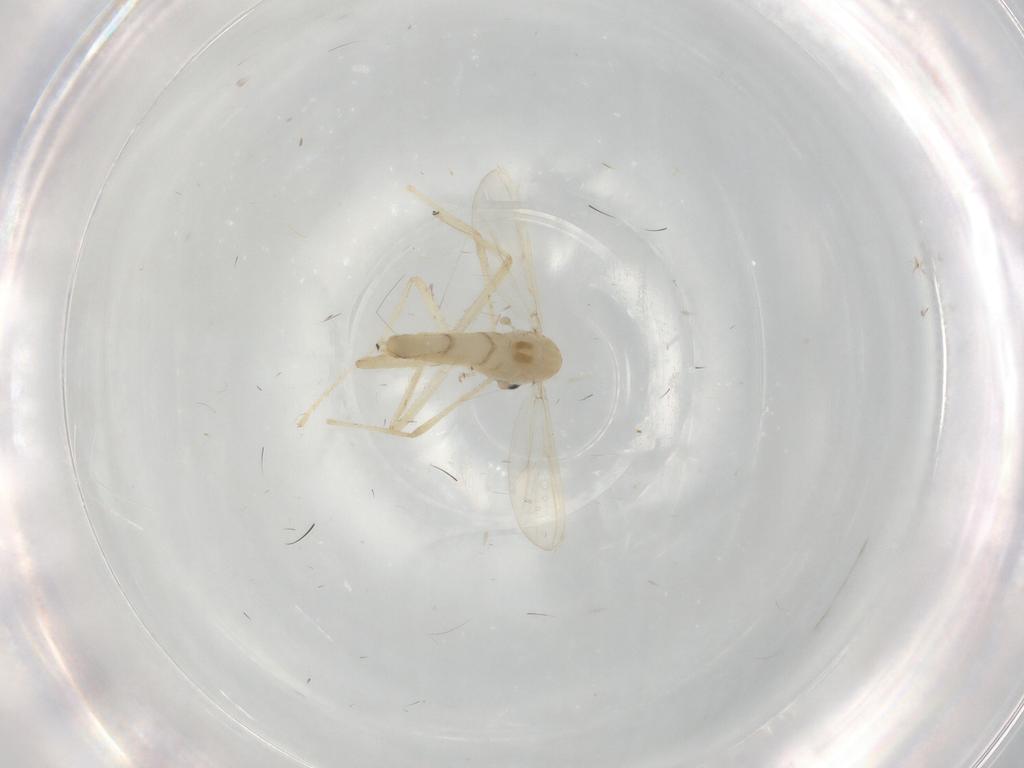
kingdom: Animalia
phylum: Arthropoda
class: Insecta
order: Diptera
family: Chironomidae
